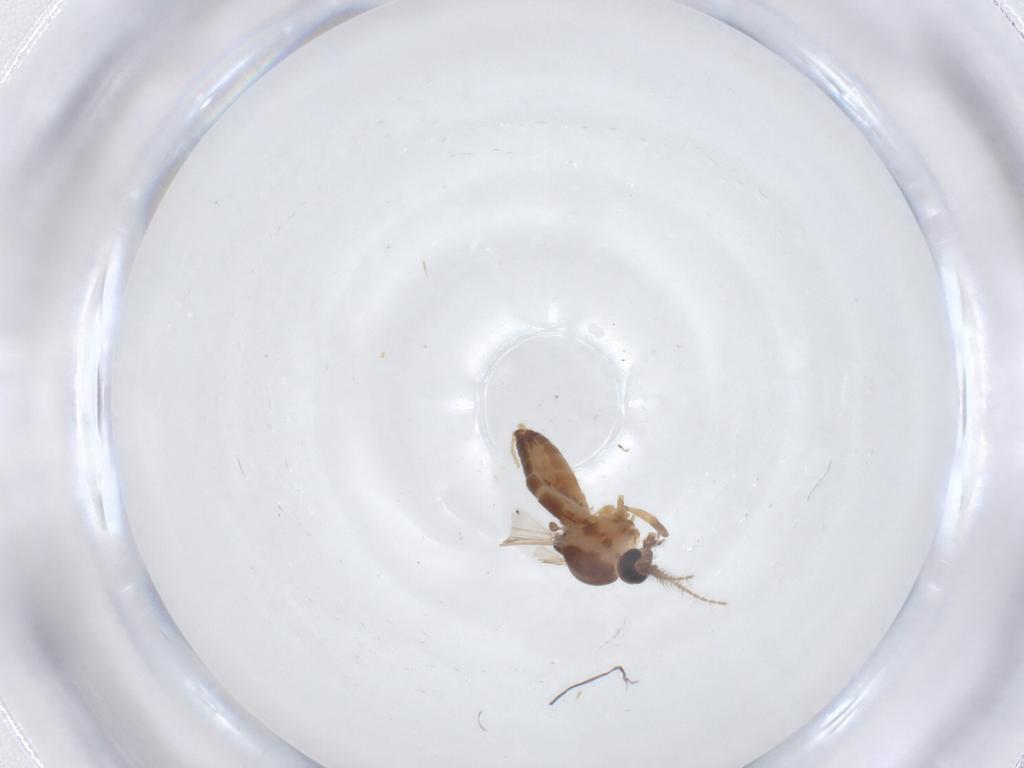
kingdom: Animalia
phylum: Arthropoda
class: Insecta
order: Diptera
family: Ceratopogonidae
